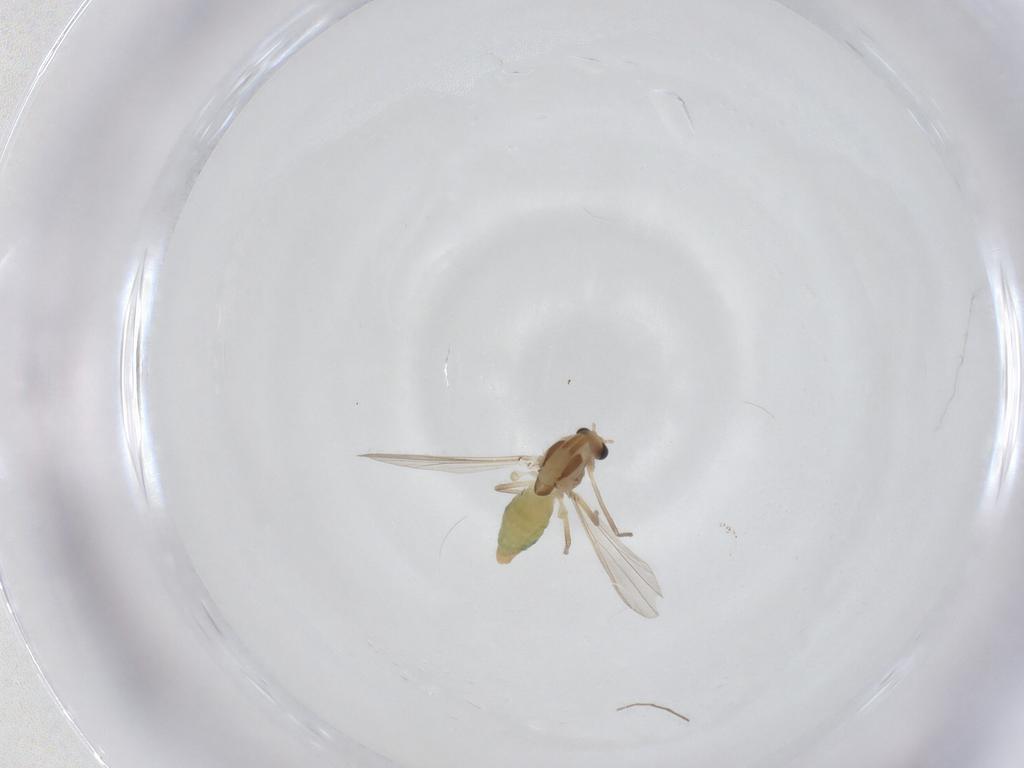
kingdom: Animalia
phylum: Arthropoda
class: Insecta
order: Diptera
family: Chironomidae
